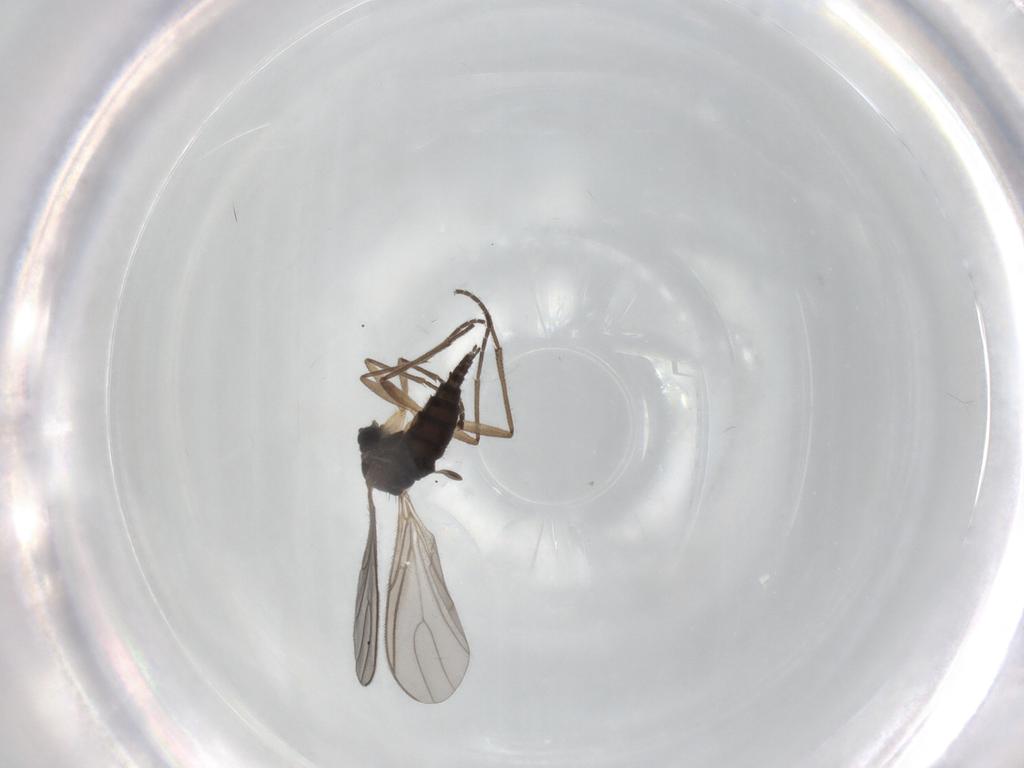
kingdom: Animalia
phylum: Arthropoda
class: Insecta
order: Diptera
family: Sciaridae
